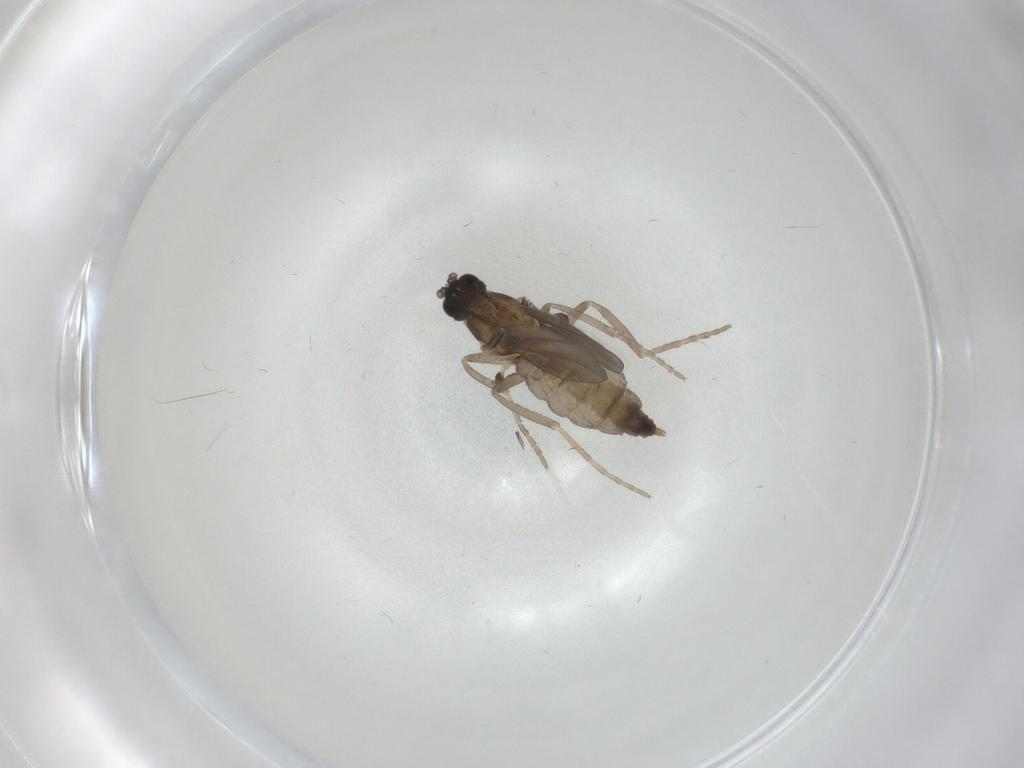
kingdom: Animalia
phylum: Arthropoda
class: Insecta
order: Diptera
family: Cecidomyiidae
